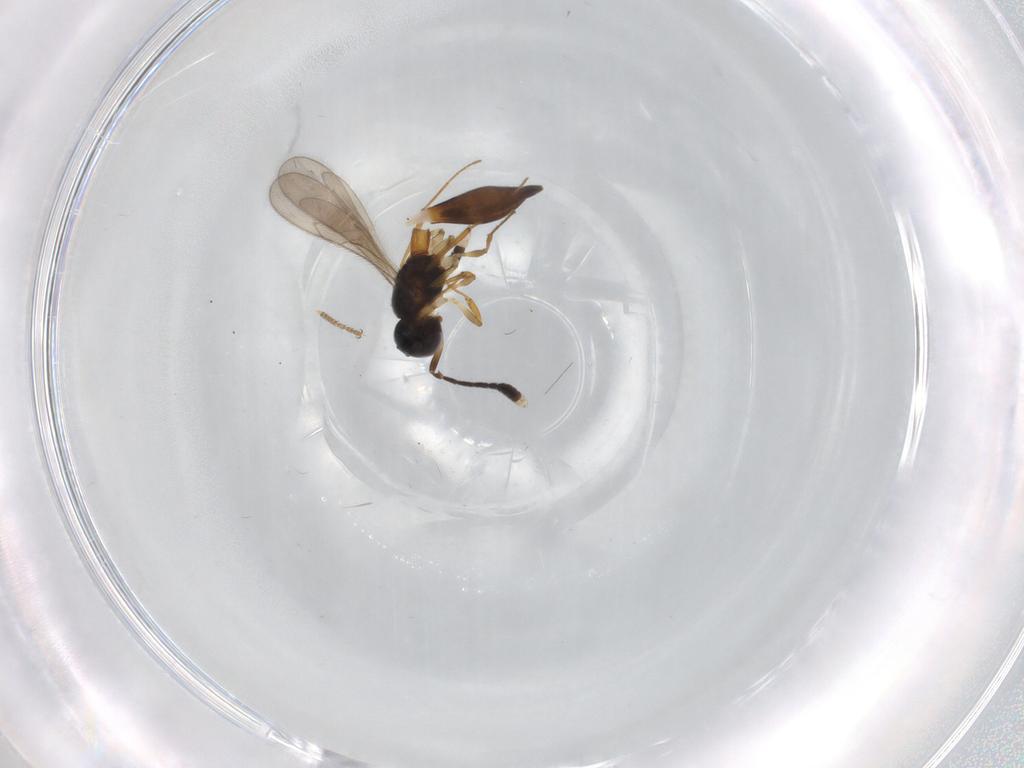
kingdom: Animalia
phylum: Arthropoda
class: Insecta
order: Hymenoptera
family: Scelionidae
